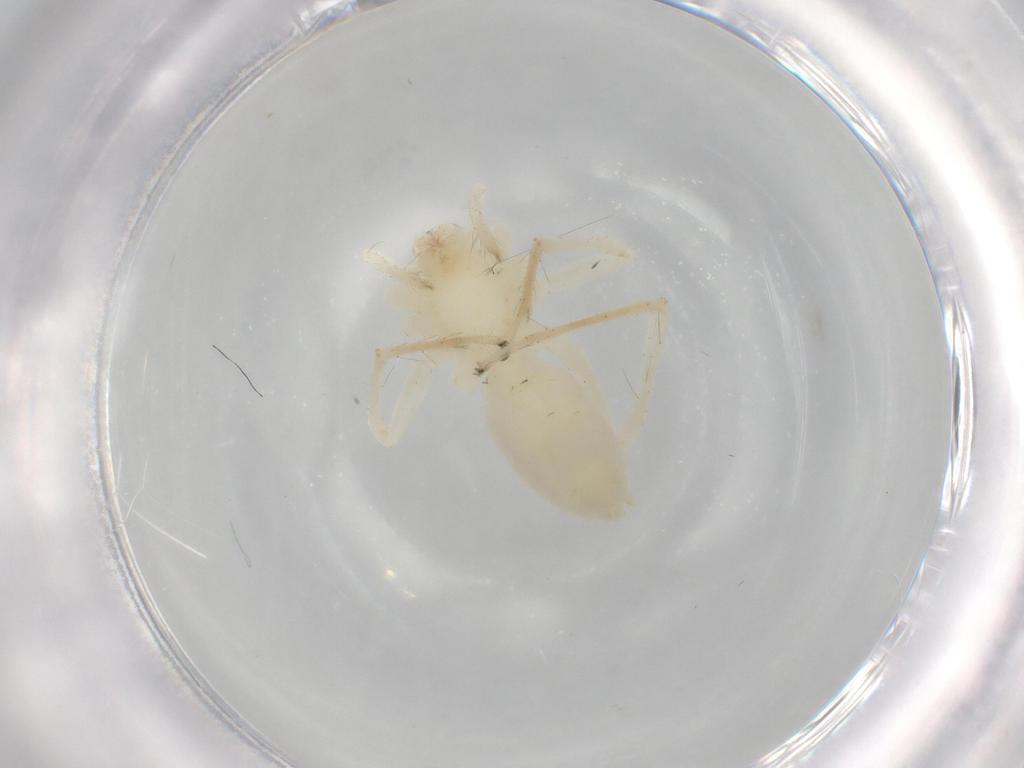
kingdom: Animalia
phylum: Arthropoda
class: Arachnida
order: Araneae
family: Anyphaenidae
